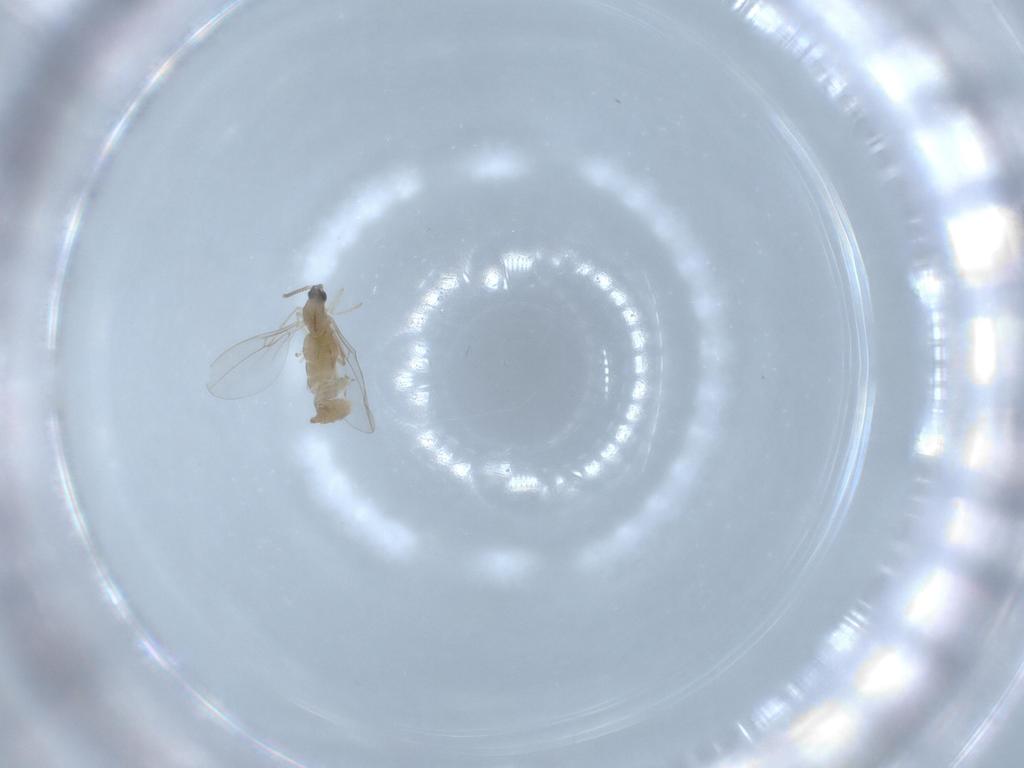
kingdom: Animalia
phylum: Arthropoda
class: Insecta
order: Diptera
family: Cecidomyiidae
